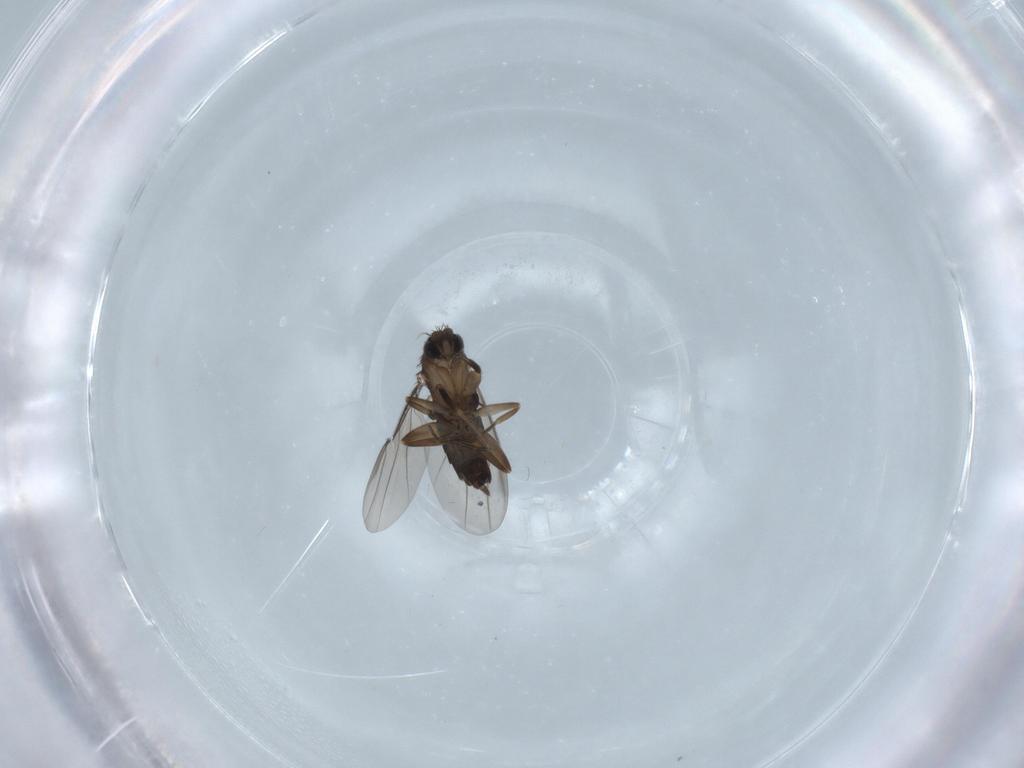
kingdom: Animalia
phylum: Arthropoda
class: Insecta
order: Diptera
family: Phoridae
